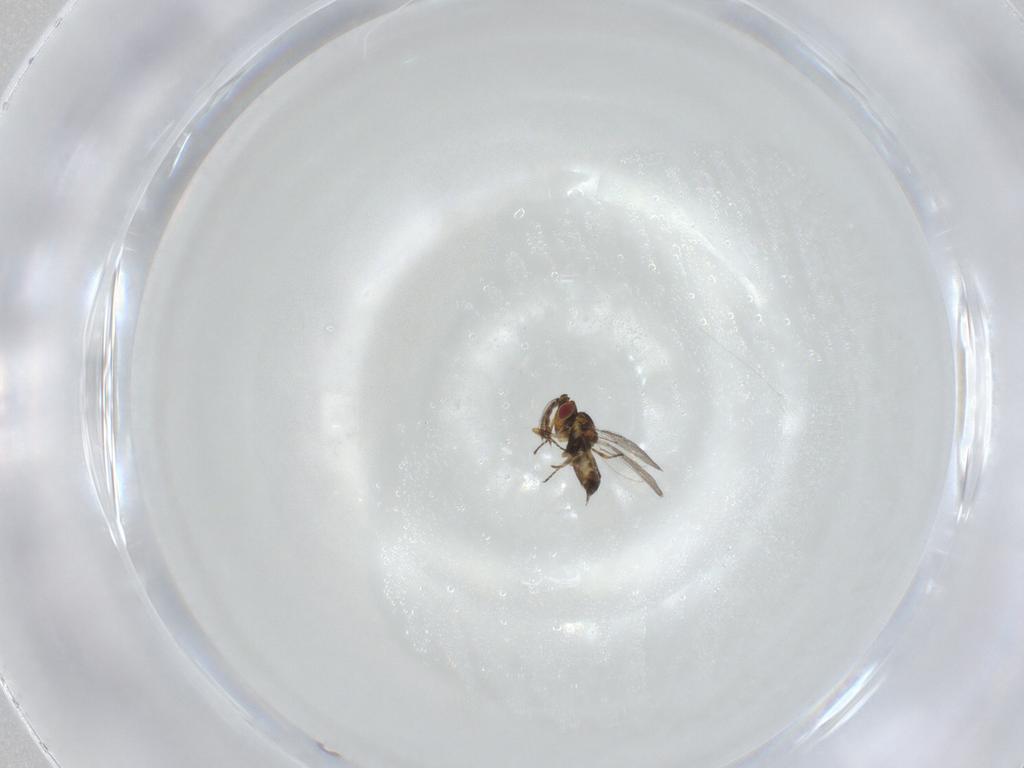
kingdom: Animalia
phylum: Arthropoda
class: Insecta
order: Hymenoptera
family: Eulophidae
